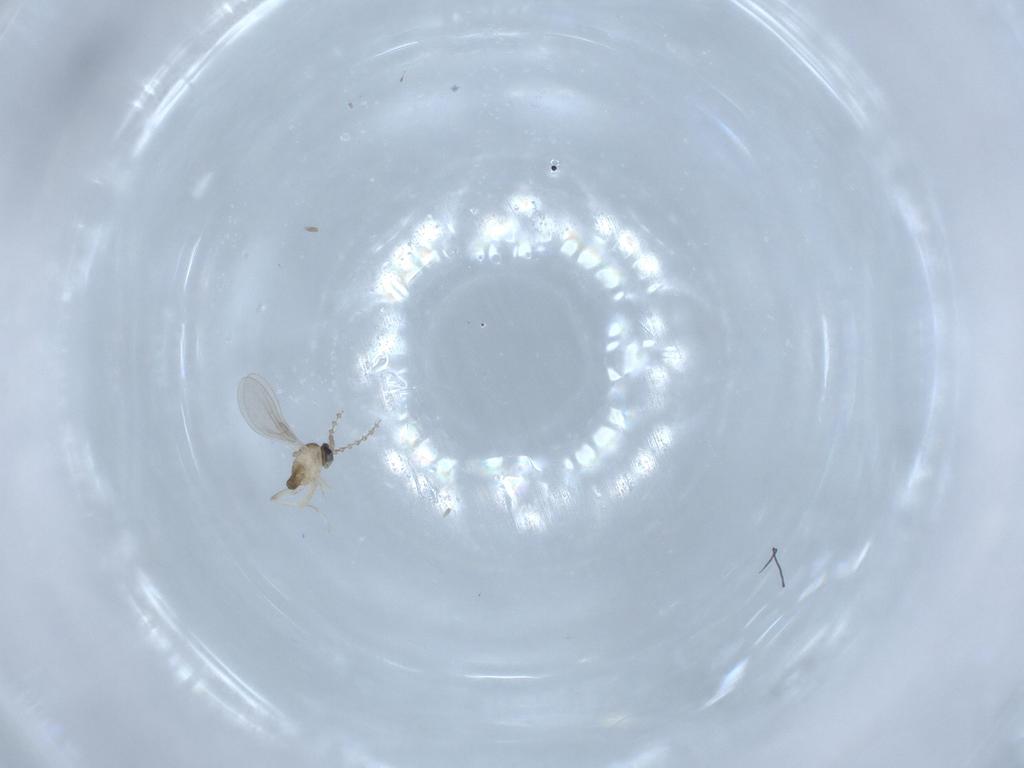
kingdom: Animalia
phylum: Arthropoda
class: Insecta
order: Diptera
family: Cecidomyiidae
